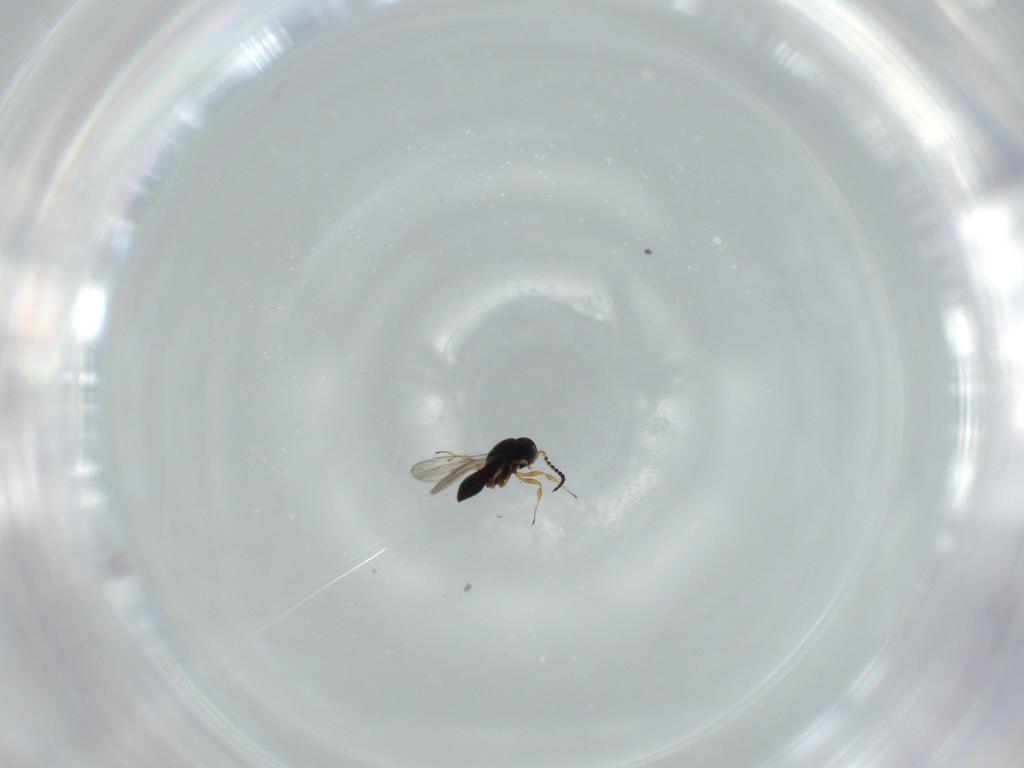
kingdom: Animalia
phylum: Arthropoda
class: Insecta
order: Hymenoptera
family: Scelionidae
